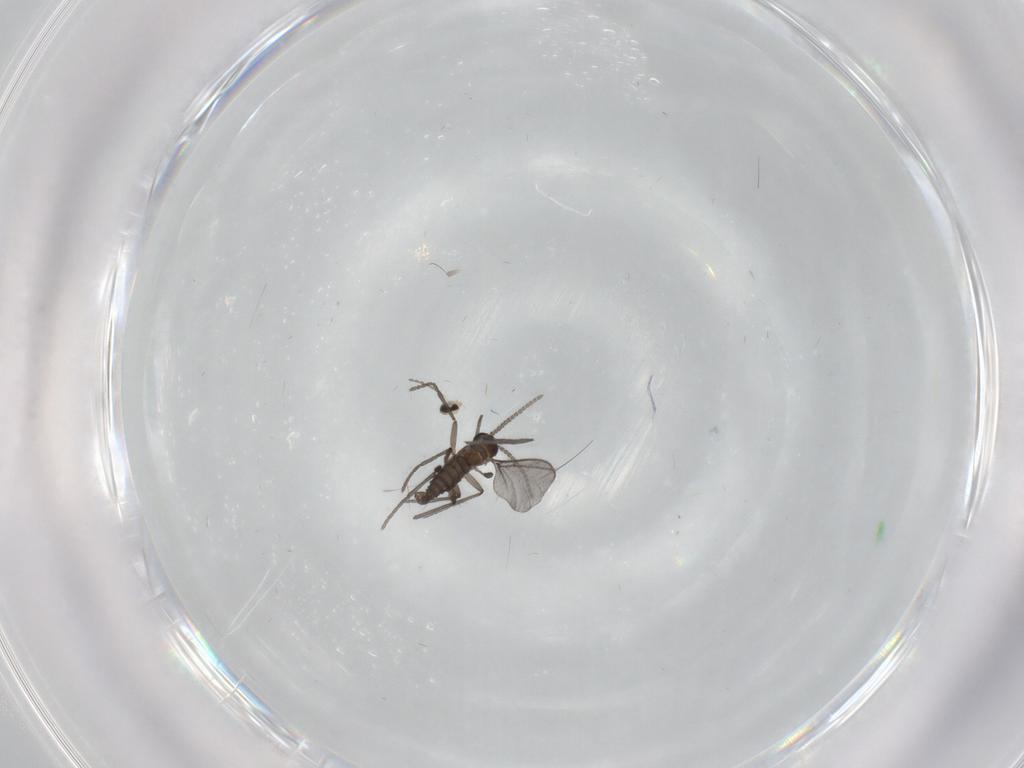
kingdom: Animalia
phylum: Arthropoda
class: Insecta
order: Diptera
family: Cecidomyiidae
